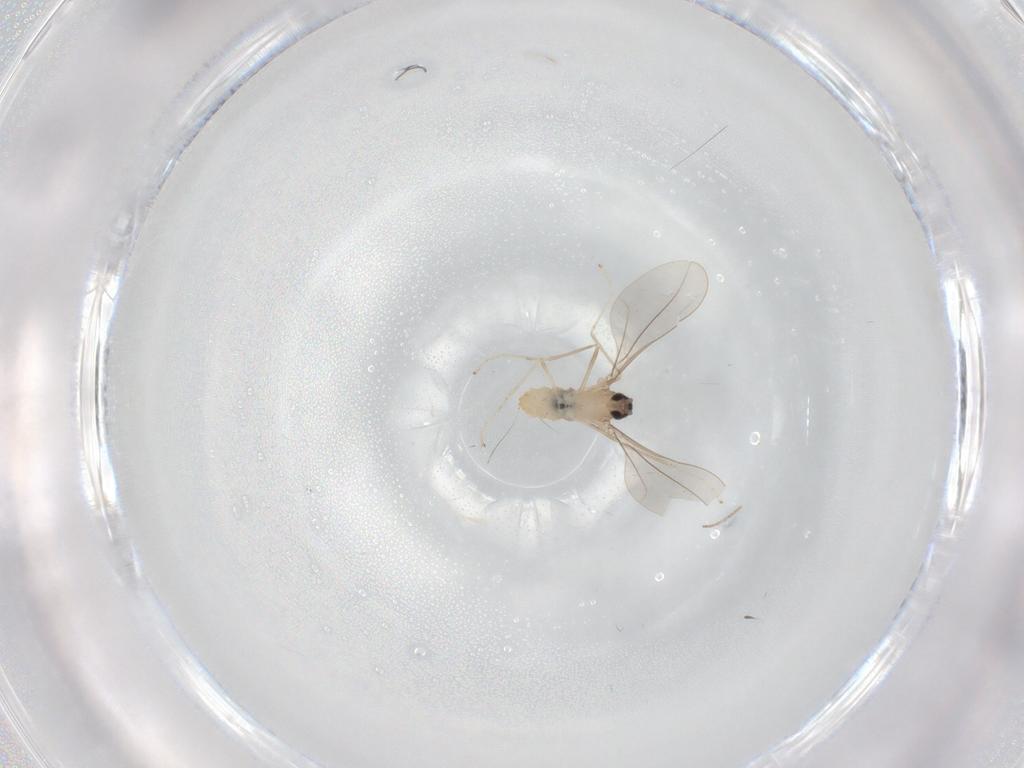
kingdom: Animalia
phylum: Arthropoda
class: Insecta
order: Diptera
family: Cecidomyiidae
